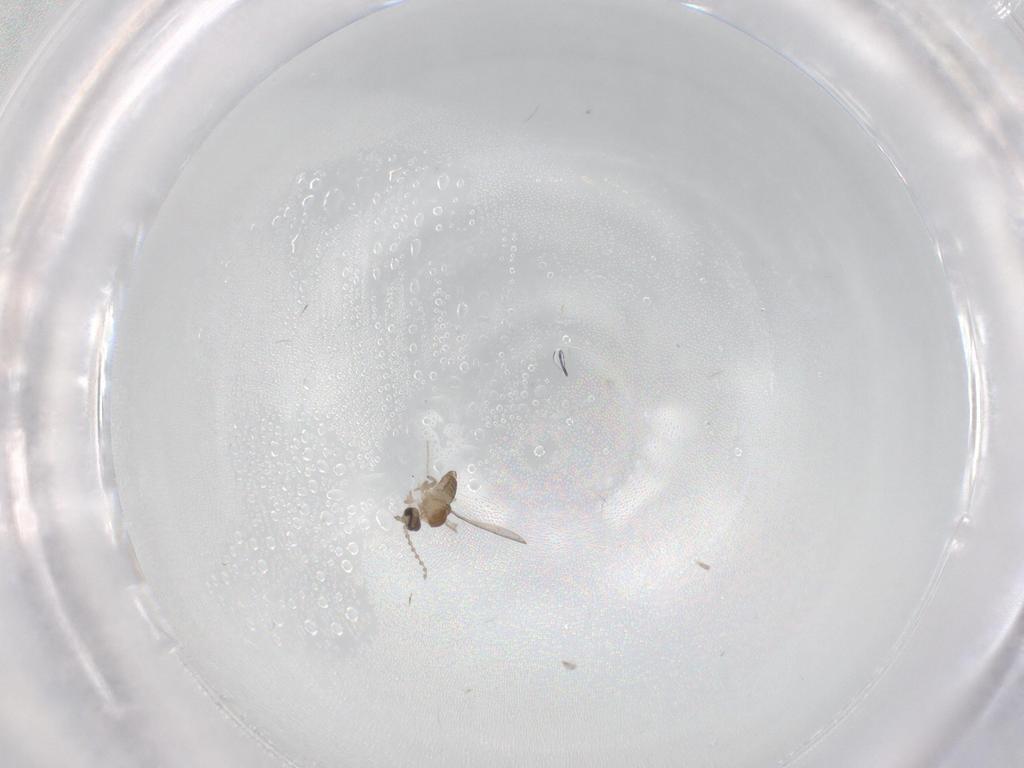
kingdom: Animalia
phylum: Arthropoda
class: Insecta
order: Diptera
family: Cecidomyiidae
